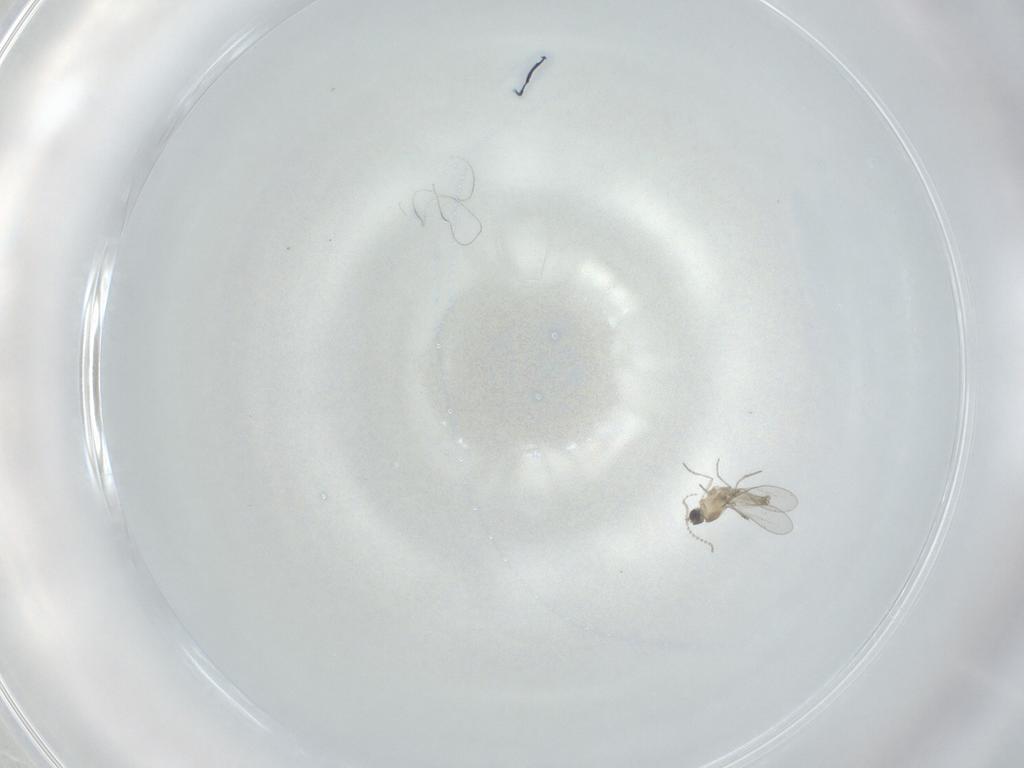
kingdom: Animalia
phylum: Arthropoda
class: Insecta
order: Diptera
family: Cecidomyiidae
